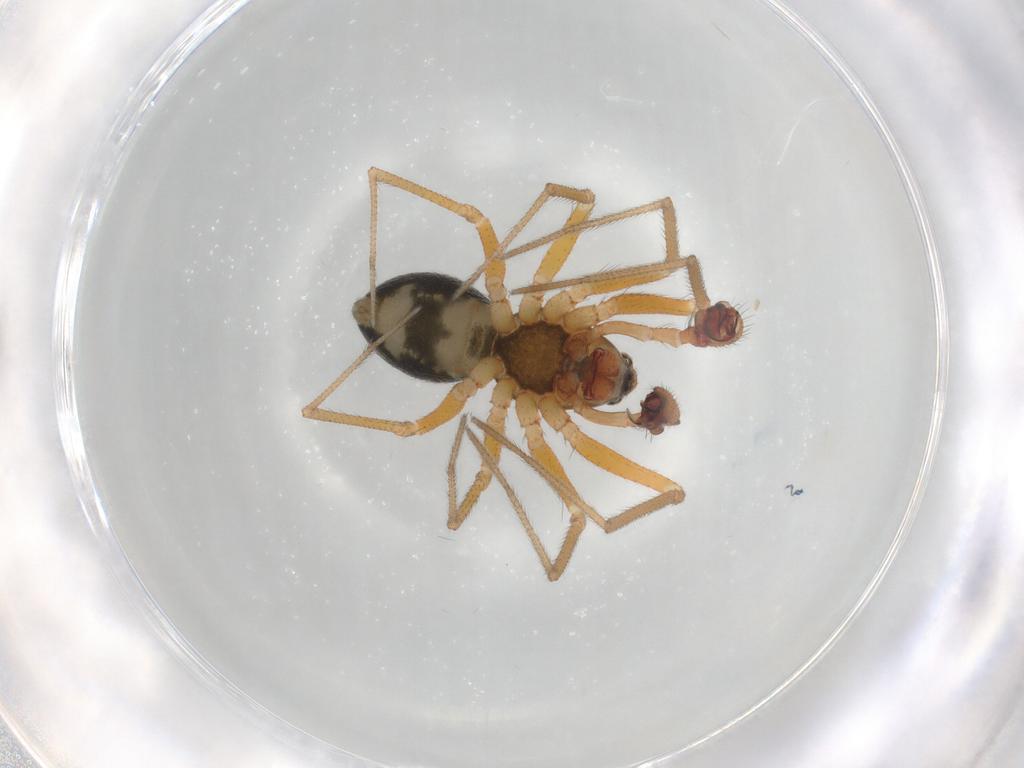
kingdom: Animalia
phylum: Arthropoda
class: Arachnida
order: Araneae
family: Linyphiidae
